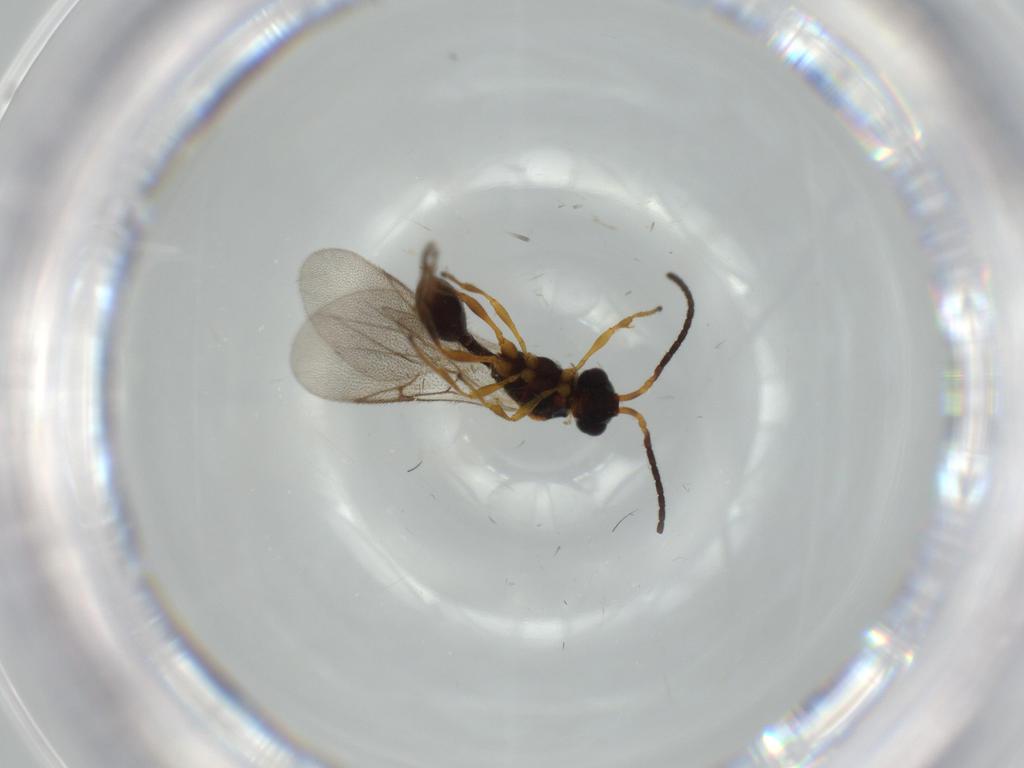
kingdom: Animalia
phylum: Arthropoda
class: Insecta
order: Hymenoptera
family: Braconidae
